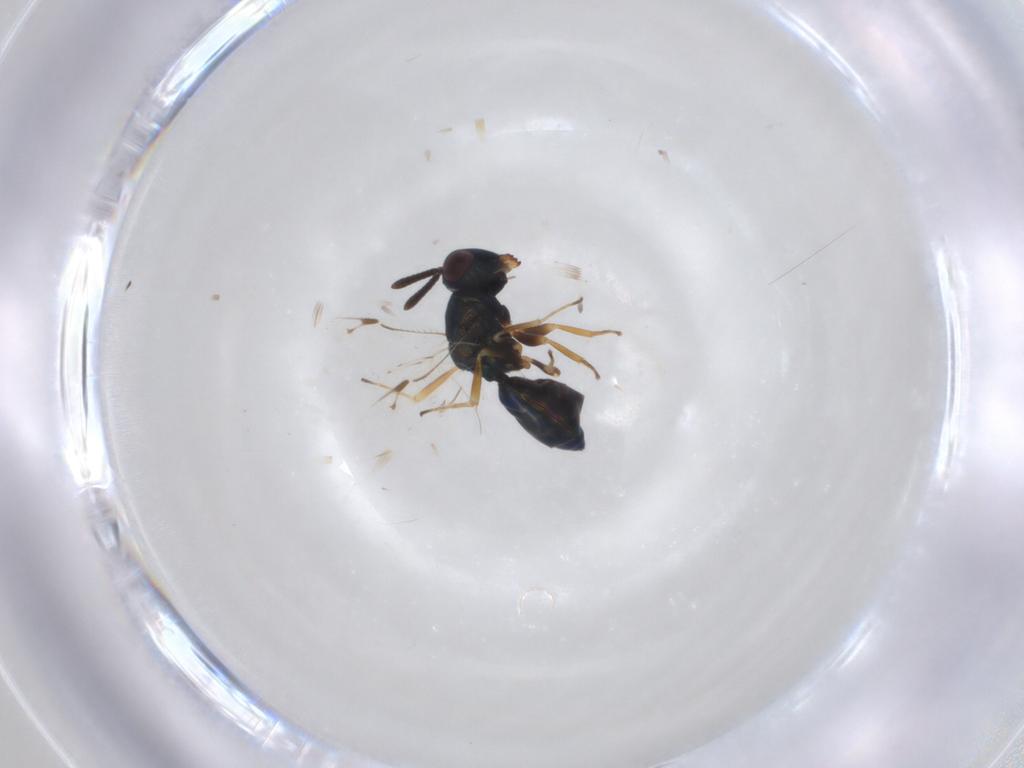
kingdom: Animalia
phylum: Arthropoda
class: Insecta
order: Hymenoptera
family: Pteromalidae
